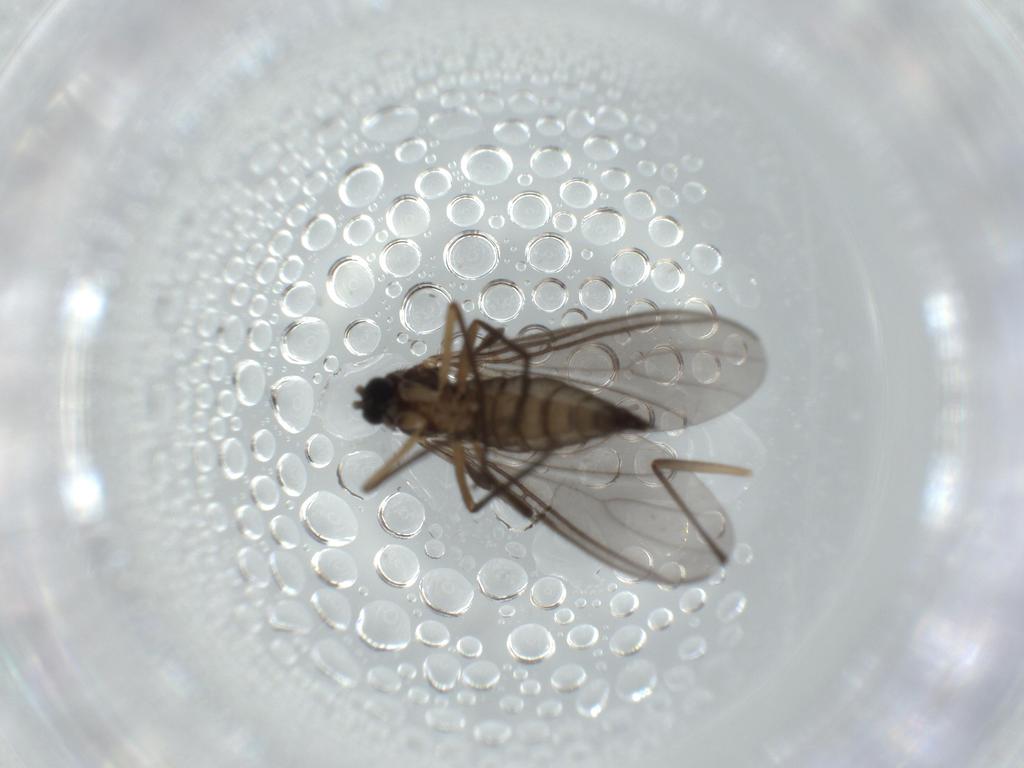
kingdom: Animalia
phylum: Arthropoda
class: Insecta
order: Diptera
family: Sciaridae
